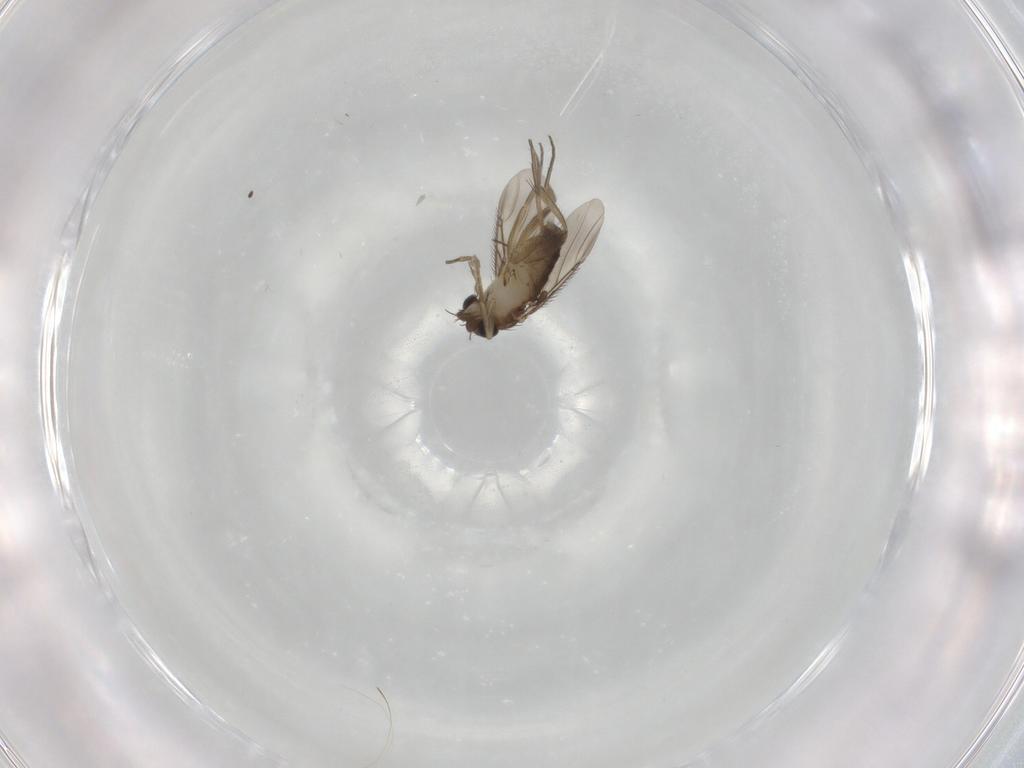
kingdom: Animalia
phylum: Arthropoda
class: Insecta
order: Diptera
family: Phoridae
